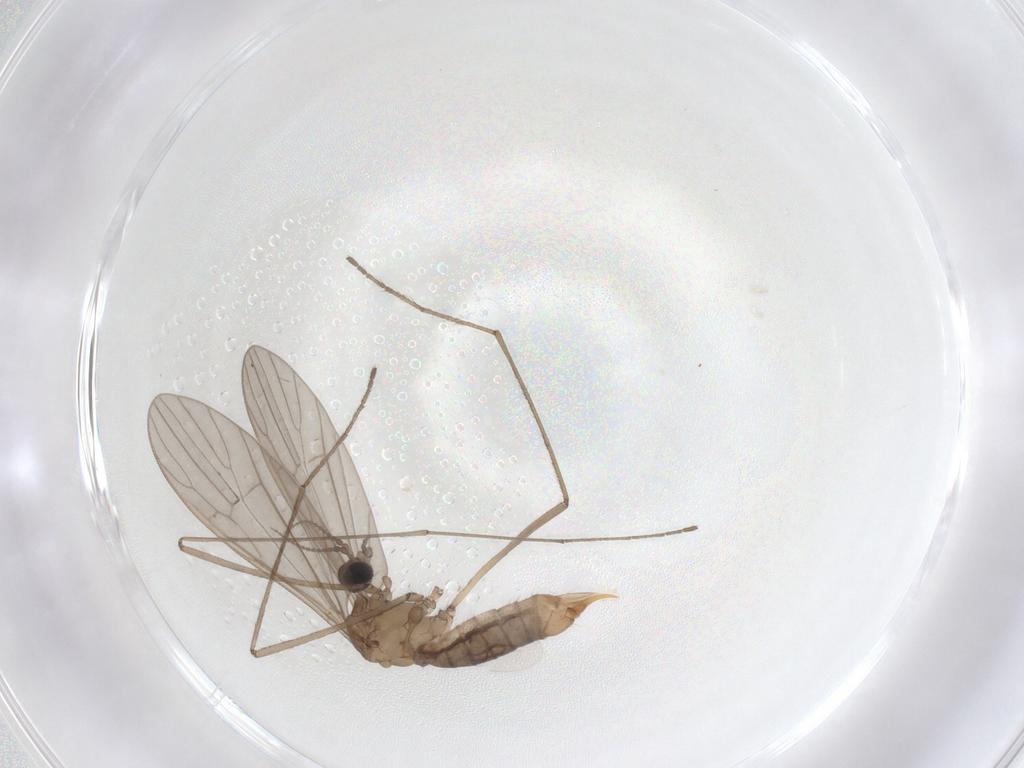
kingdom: Animalia
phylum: Arthropoda
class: Insecta
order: Diptera
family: Limoniidae
